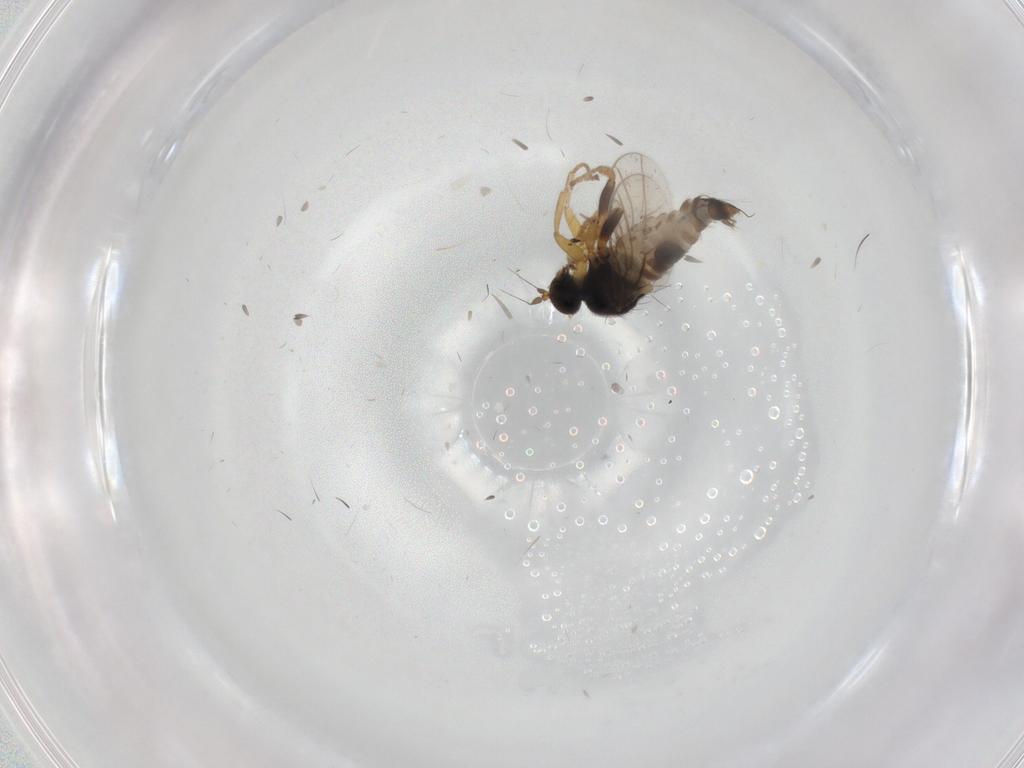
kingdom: Animalia
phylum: Arthropoda
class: Insecta
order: Diptera
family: Hybotidae
